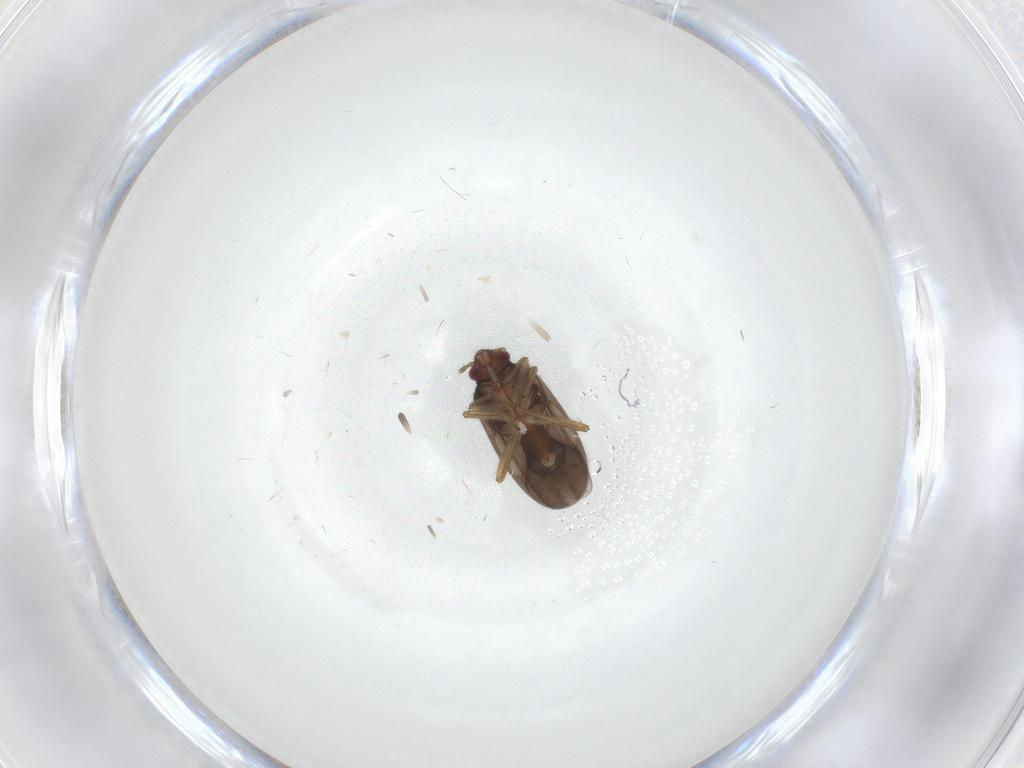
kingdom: Animalia
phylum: Arthropoda
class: Insecta
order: Hemiptera
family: Ceratocombidae
